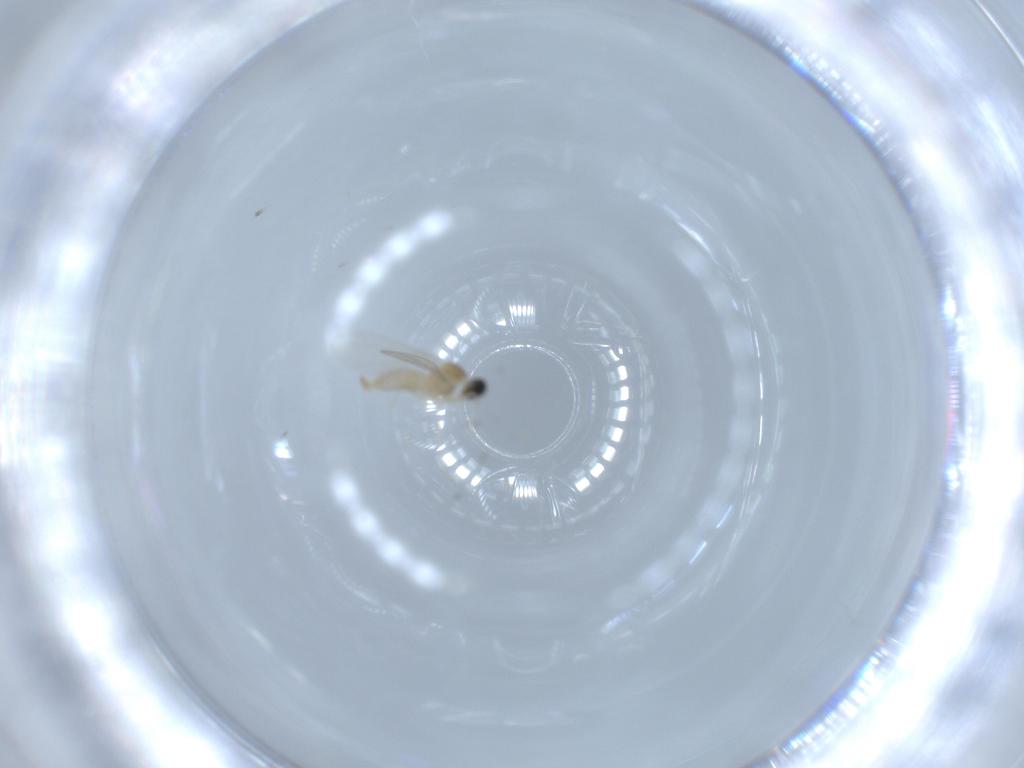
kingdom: Animalia
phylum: Arthropoda
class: Insecta
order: Diptera
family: Cecidomyiidae
